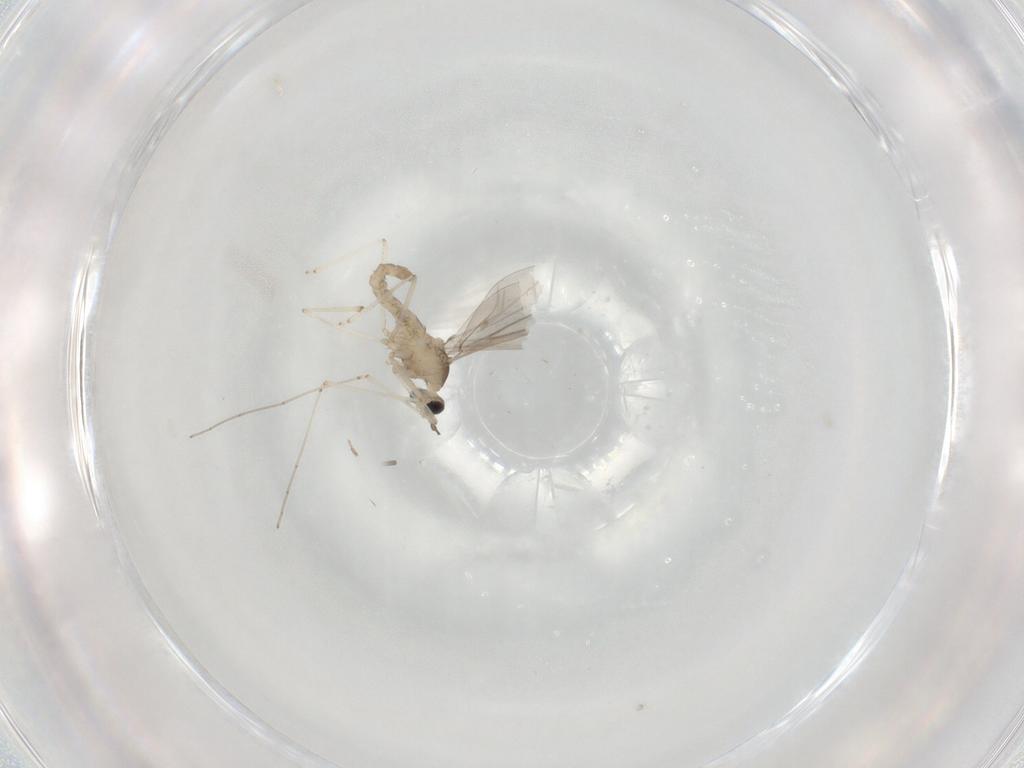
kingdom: Animalia
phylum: Arthropoda
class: Insecta
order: Diptera
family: Cecidomyiidae
